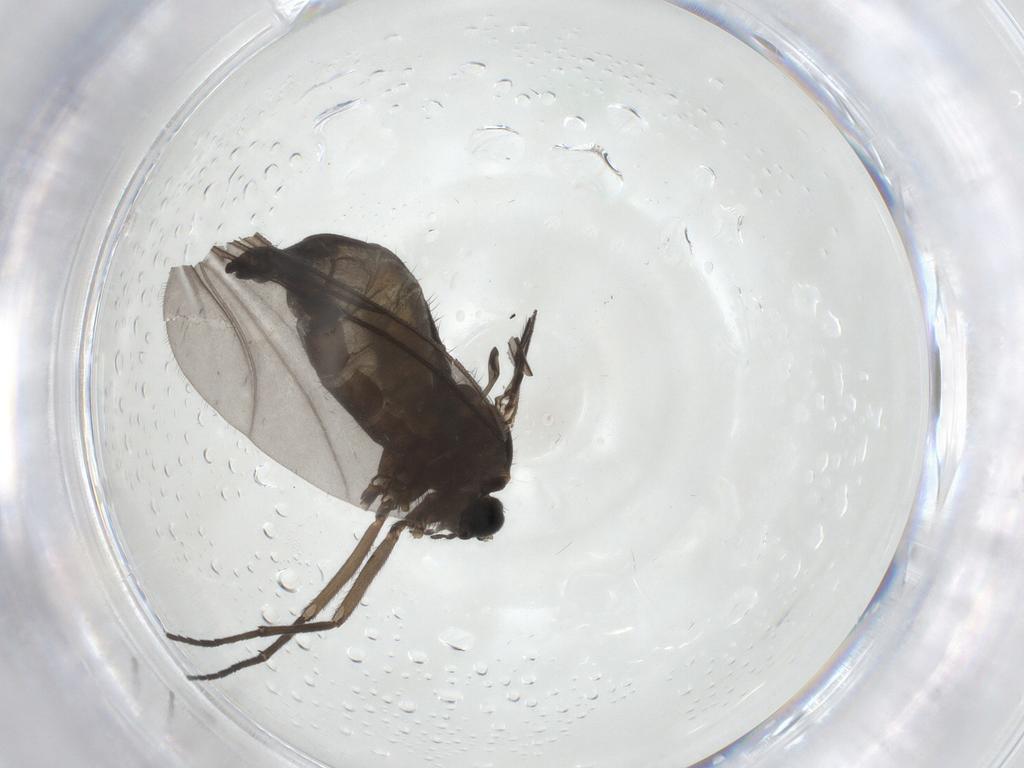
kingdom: Animalia
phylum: Arthropoda
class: Insecta
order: Diptera
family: Sciaridae
